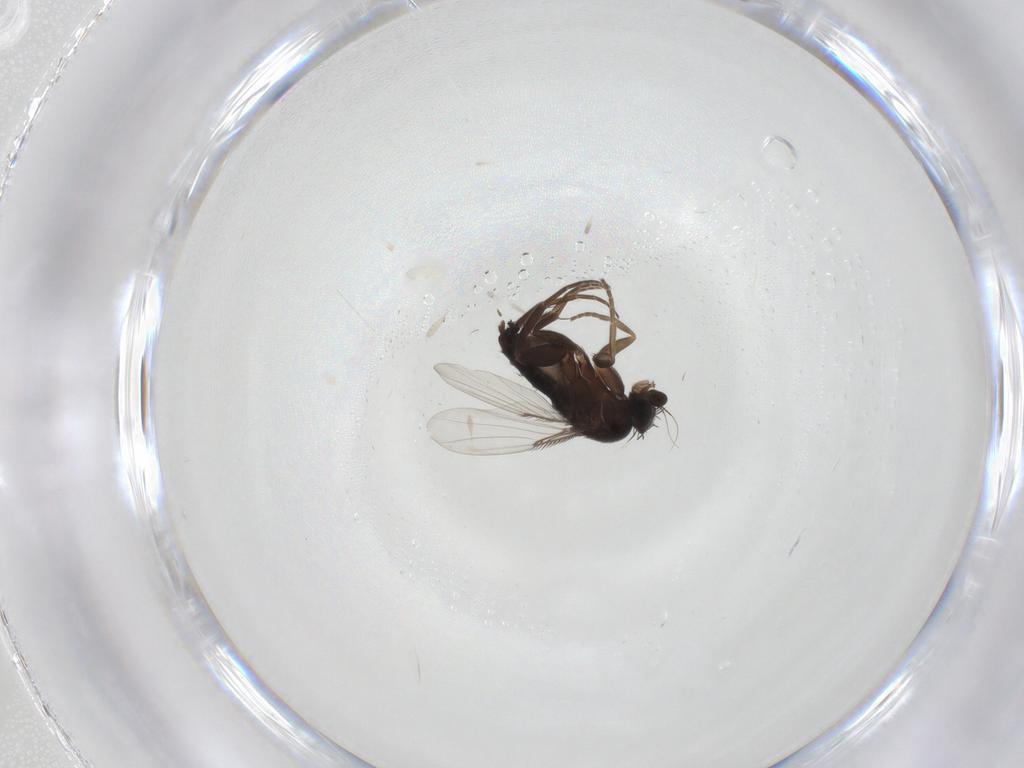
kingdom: Animalia
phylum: Arthropoda
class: Insecta
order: Diptera
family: Phoridae
